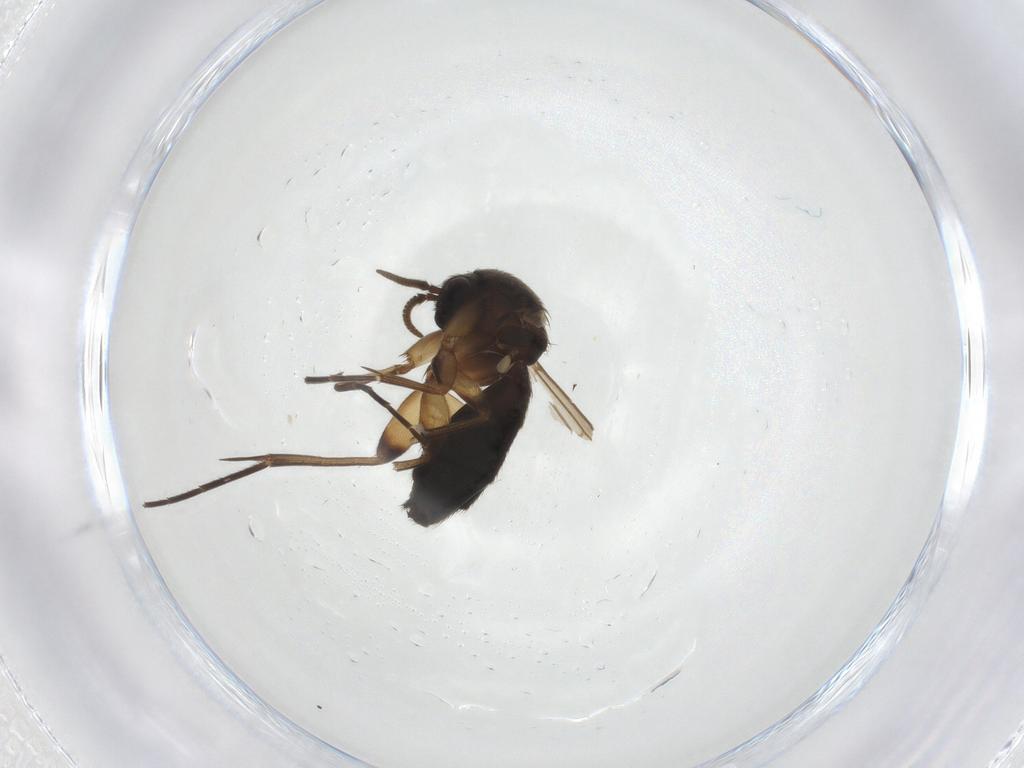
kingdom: Animalia
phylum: Arthropoda
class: Insecta
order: Diptera
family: Mycetophilidae
